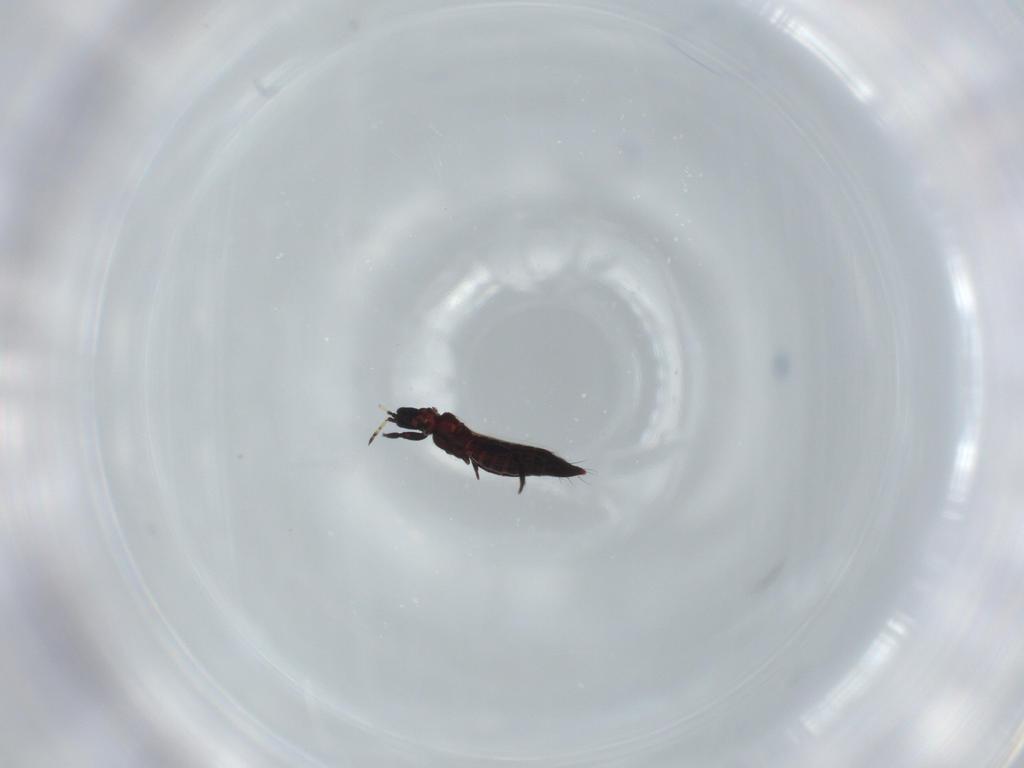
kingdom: Animalia
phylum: Arthropoda
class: Insecta
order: Thysanoptera
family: Aeolothripidae
